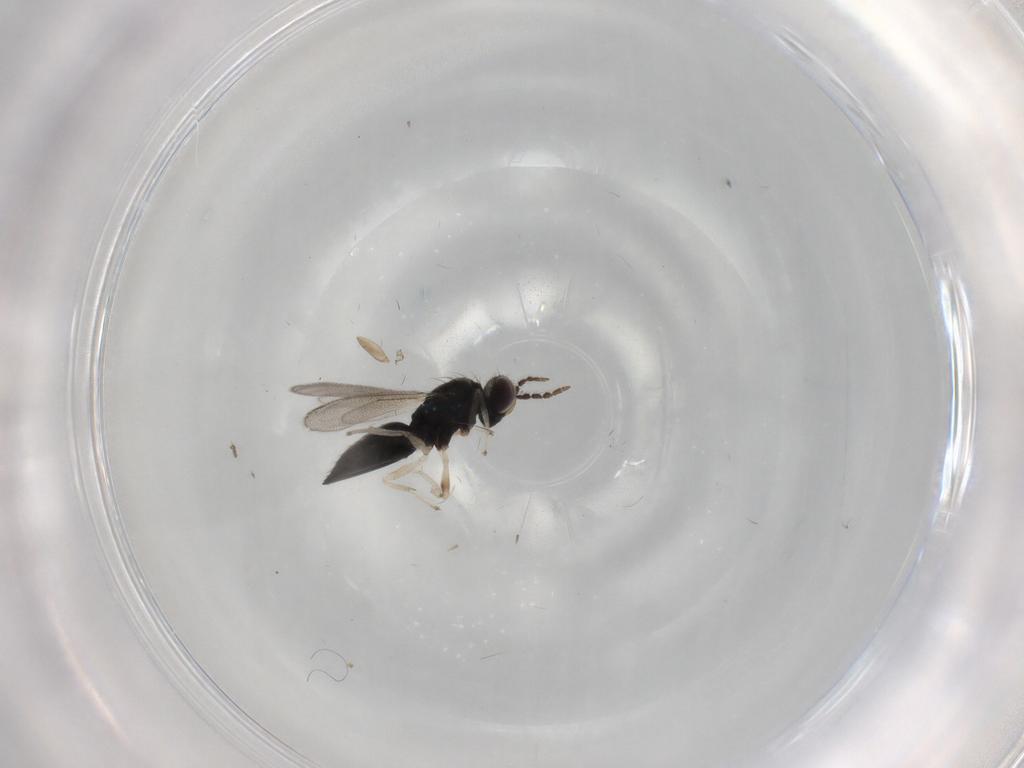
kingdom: Animalia
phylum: Arthropoda
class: Insecta
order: Hymenoptera
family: Eulophidae
